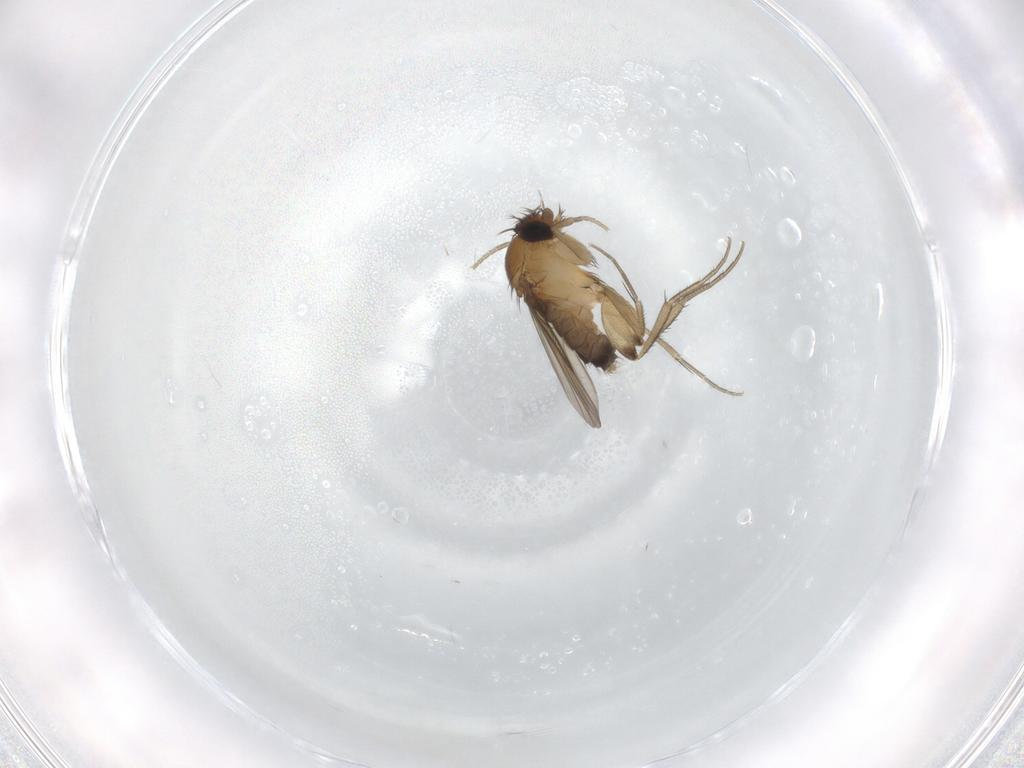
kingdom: Animalia
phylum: Arthropoda
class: Insecta
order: Diptera
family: Phoridae
